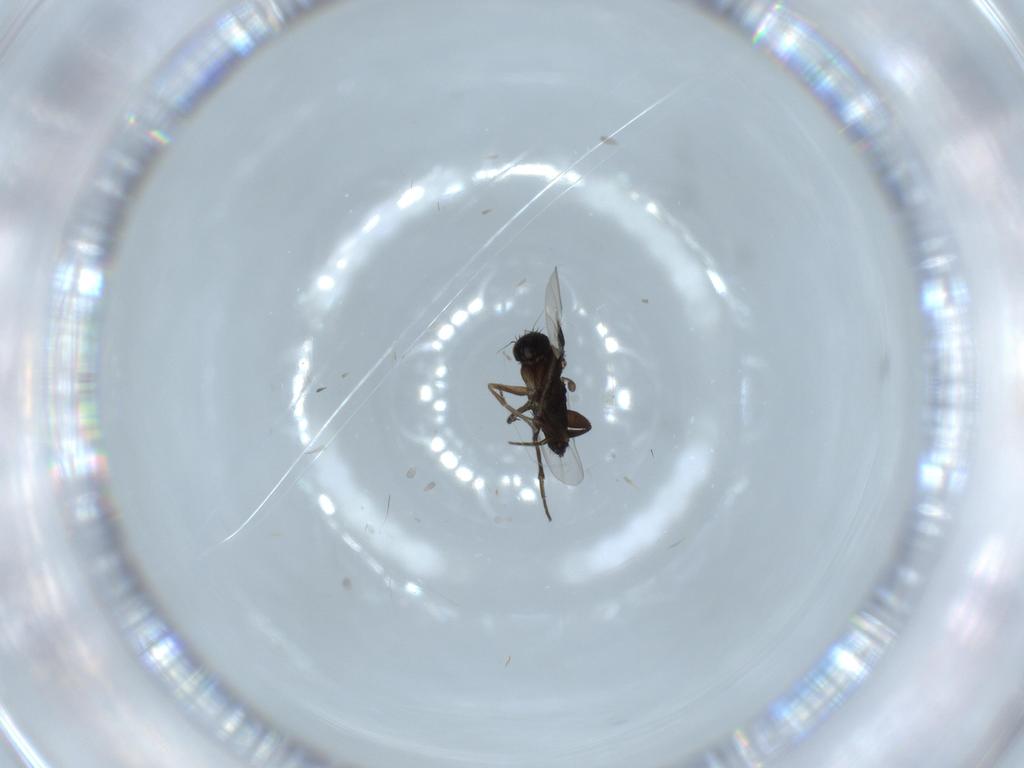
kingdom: Animalia
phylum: Arthropoda
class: Insecta
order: Diptera
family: Phoridae
